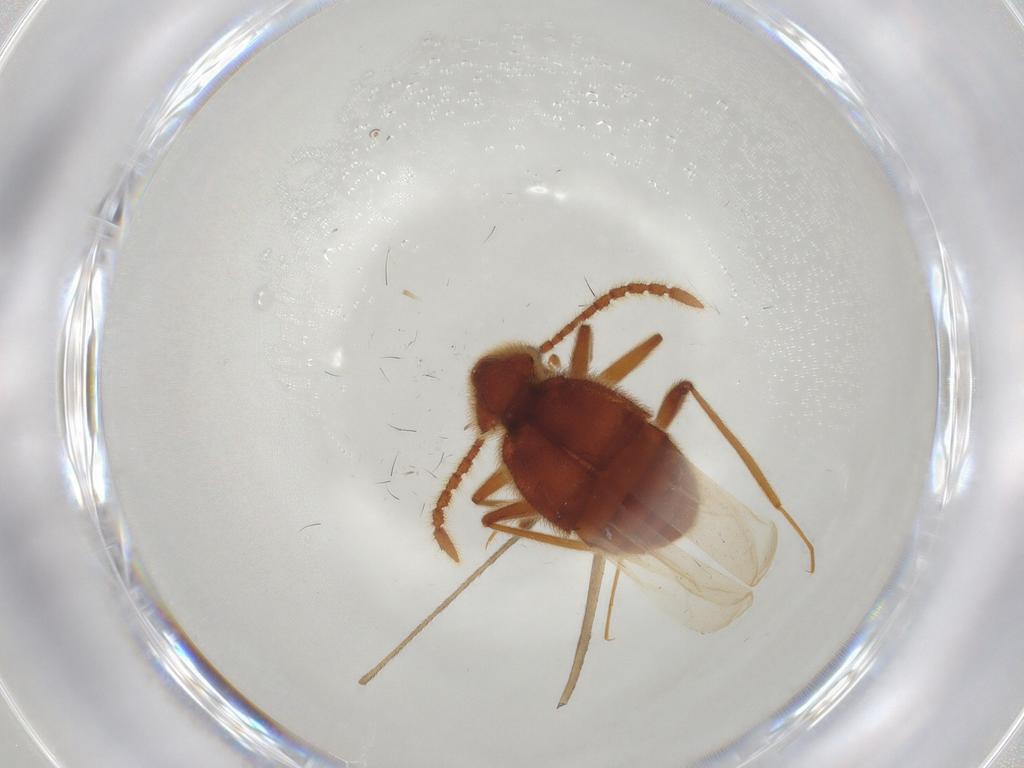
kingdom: Animalia
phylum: Arthropoda
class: Insecta
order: Coleoptera
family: Staphylinidae
